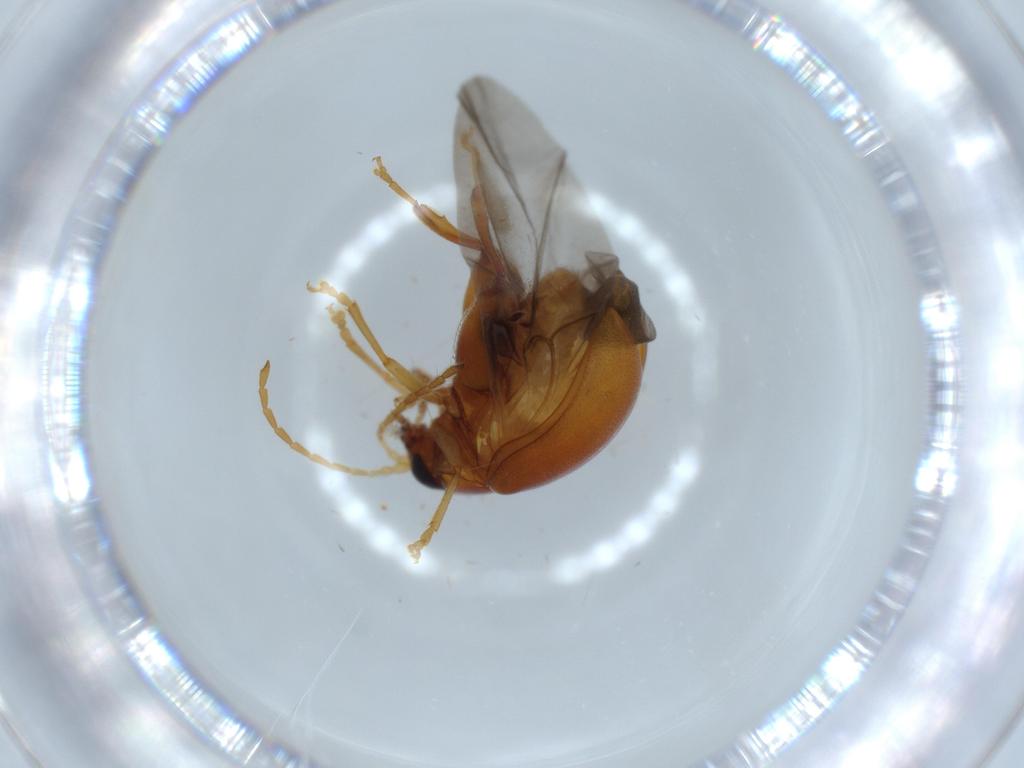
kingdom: Animalia
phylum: Arthropoda
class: Insecta
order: Coleoptera
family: Chrysomelidae
